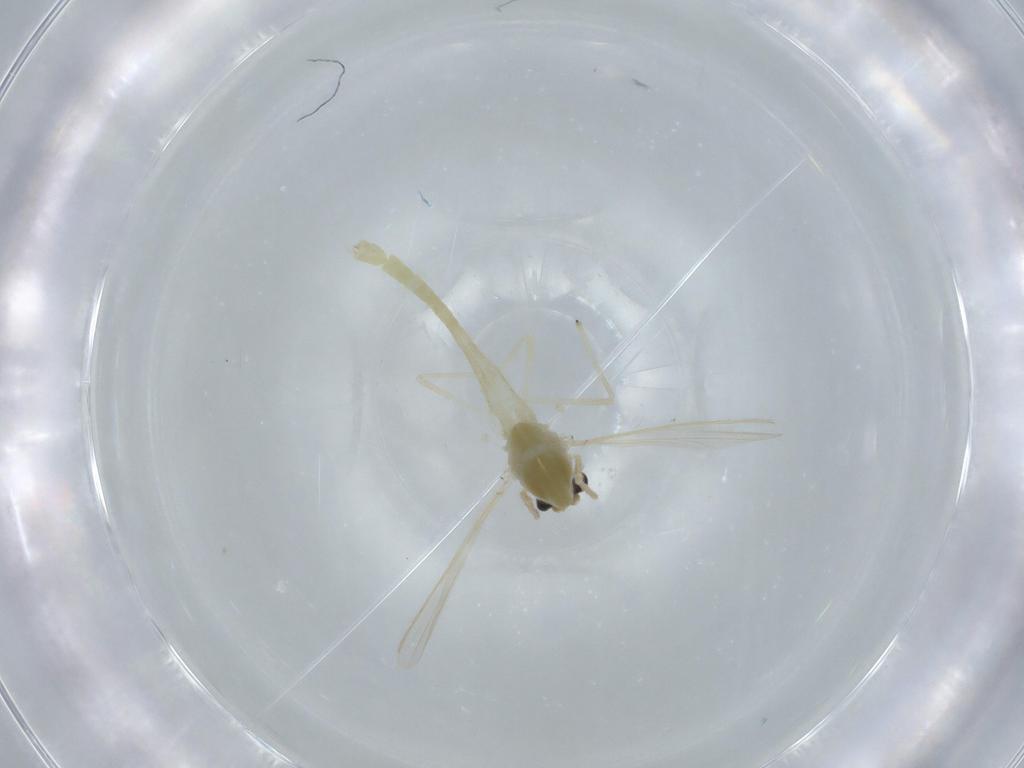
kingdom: Animalia
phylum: Arthropoda
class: Insecta
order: Diptera
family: Chironomidae
